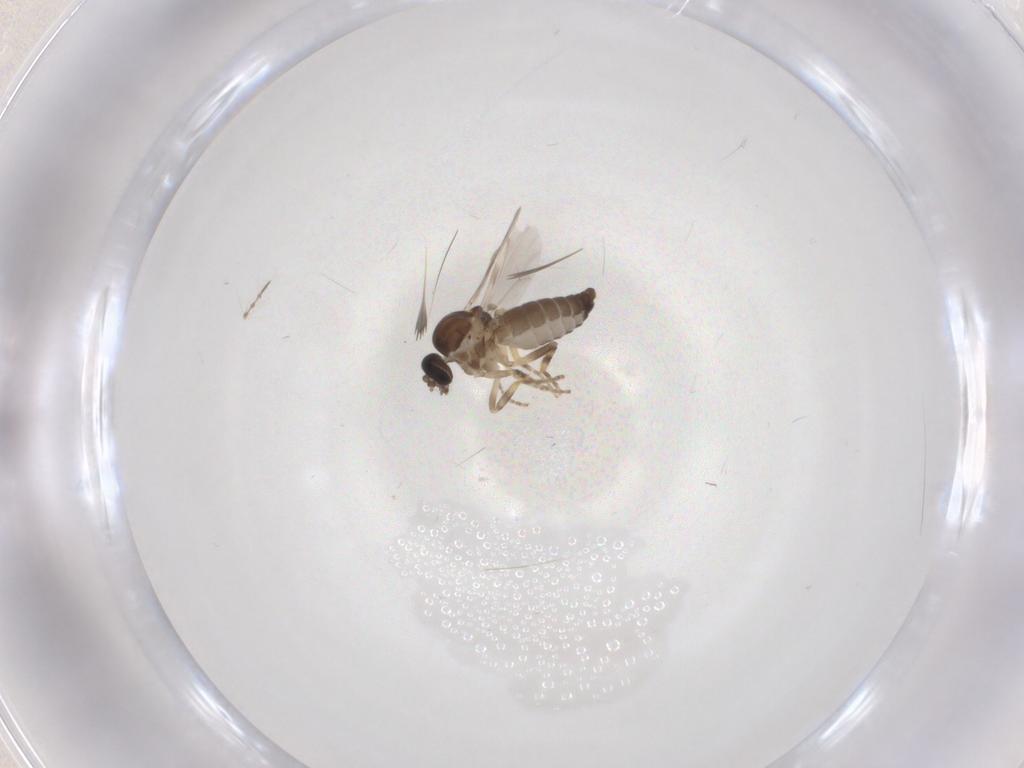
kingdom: Animalia
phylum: Arthropoda
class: Insecta
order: Diptera
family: Ceratopogonidae
